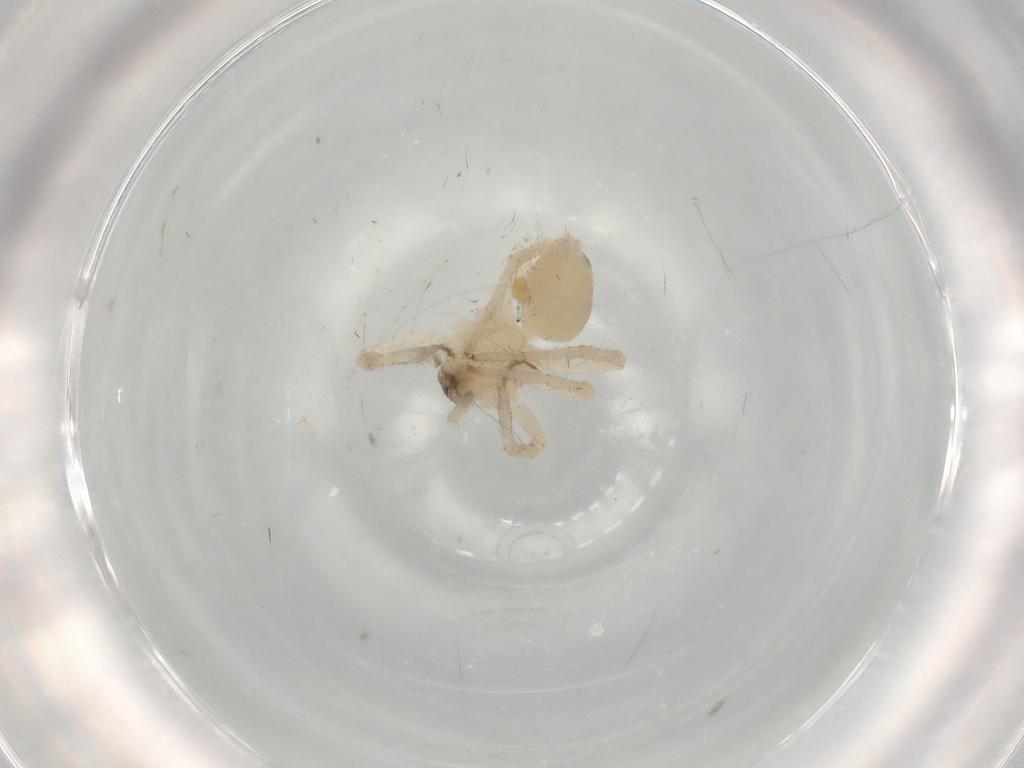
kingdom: Animalia
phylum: Arthropoda
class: Arachnida
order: Araneae
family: Anyphaenidae
